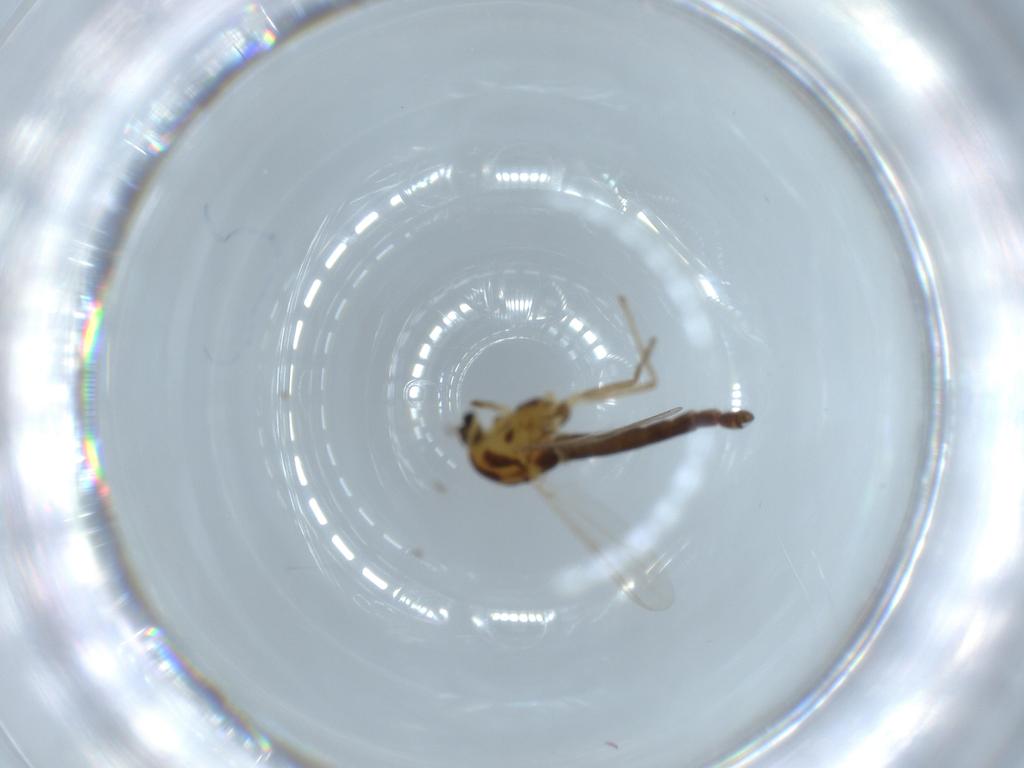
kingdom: Animalia
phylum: Arthropoda
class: Insecta
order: Diptera
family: Chironomidae
